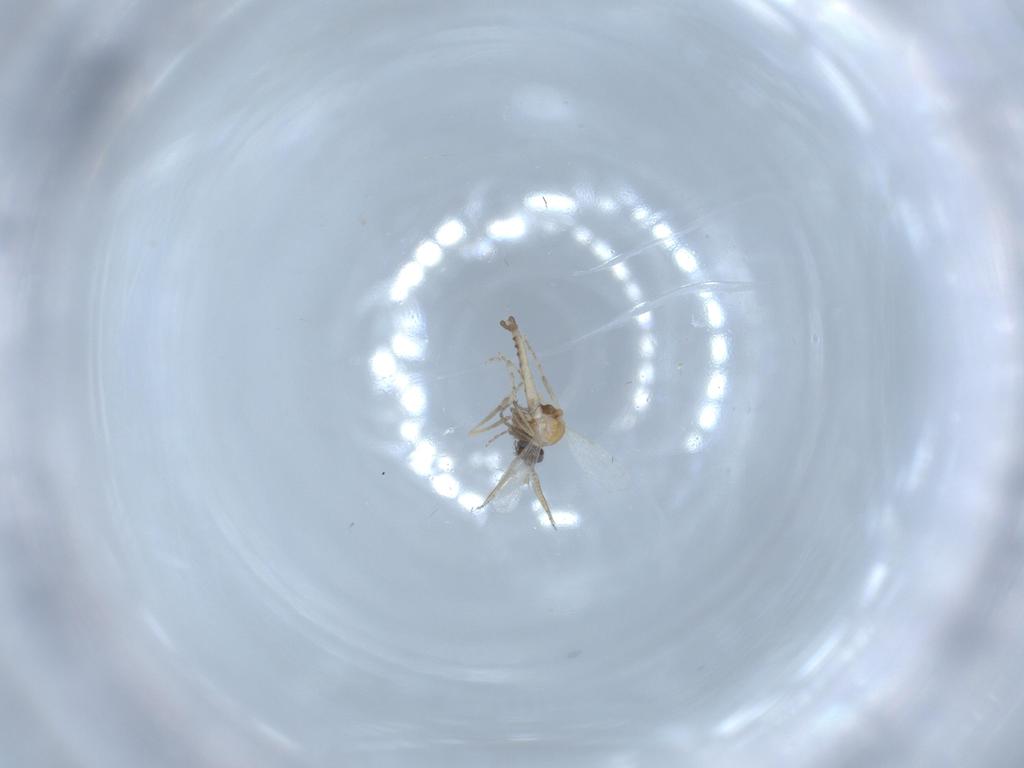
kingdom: Animalia
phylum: Arthropoda
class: Insecta
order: Diptera
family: Ceratopogonidae
